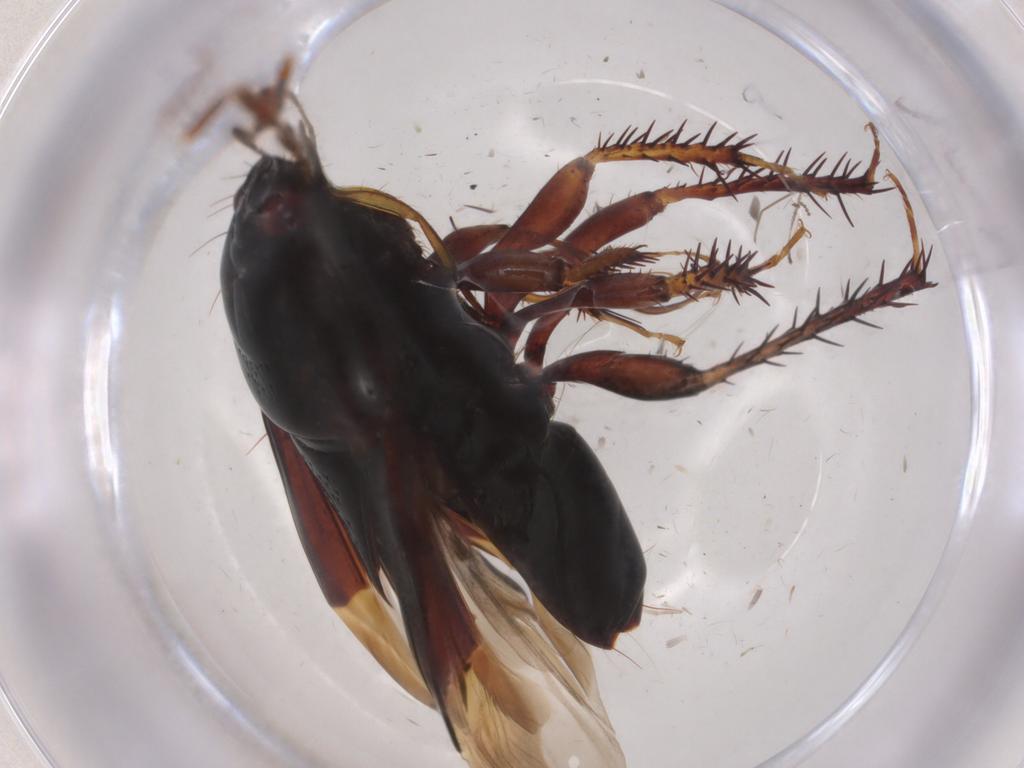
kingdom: Animalia
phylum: Arthropoda
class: Insecta
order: Hemiptera
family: Cydnidae
